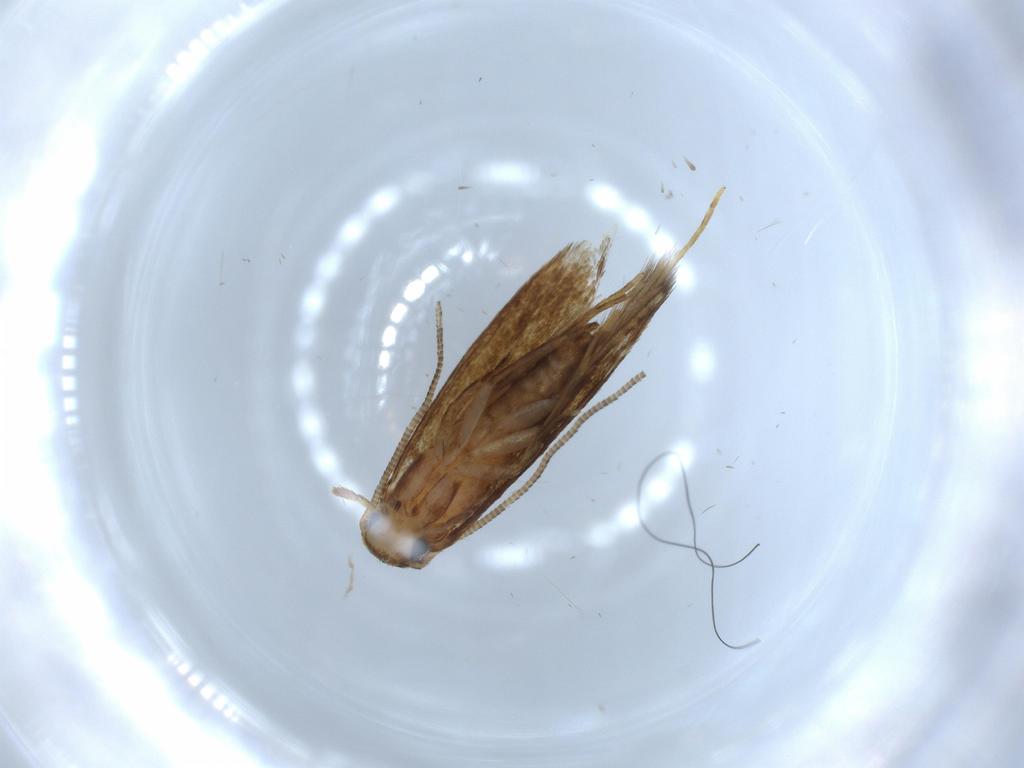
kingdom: Animalia
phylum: Arthropoda
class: Insecta
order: Lepidoptera
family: Tineidae
